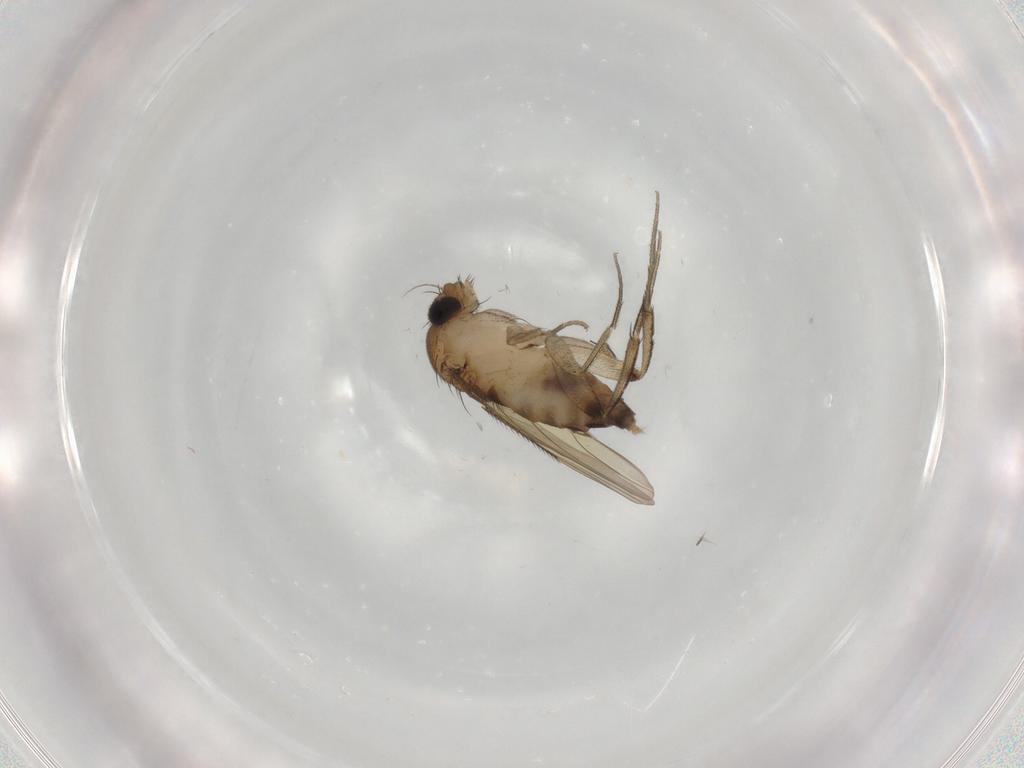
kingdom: Animalia
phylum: Arthropoda
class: Insecta
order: Diptera
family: Phoridae
